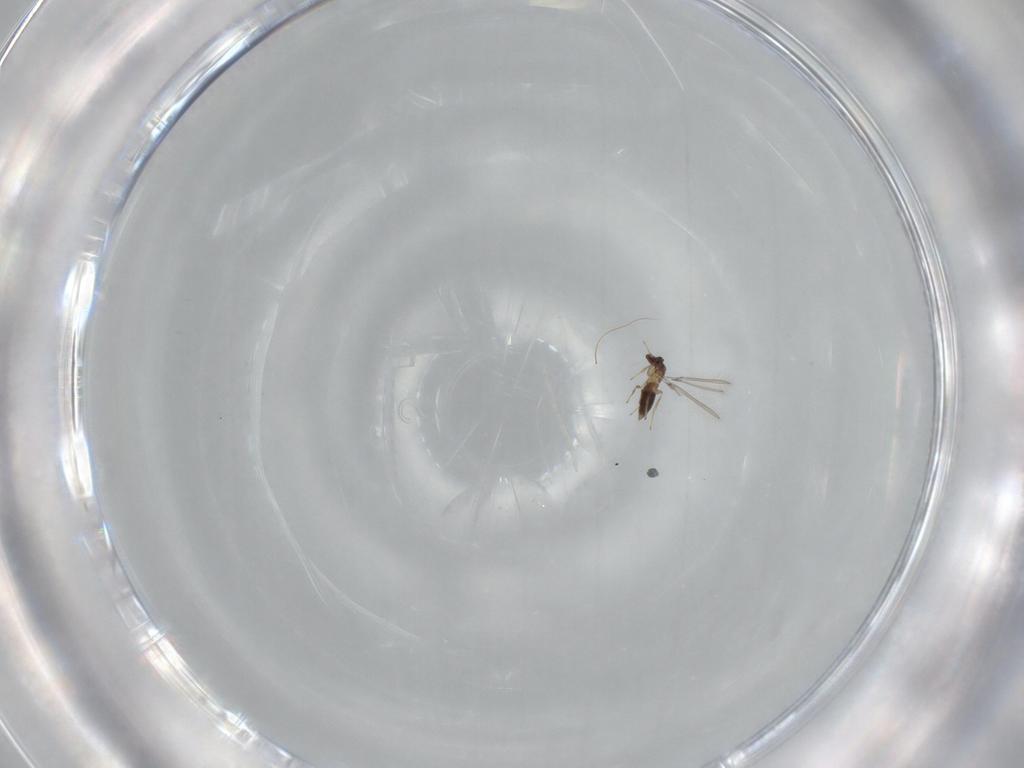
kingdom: Animalia
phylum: Arthropoda
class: Insecta
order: Hymenoptera
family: Mymaridae
